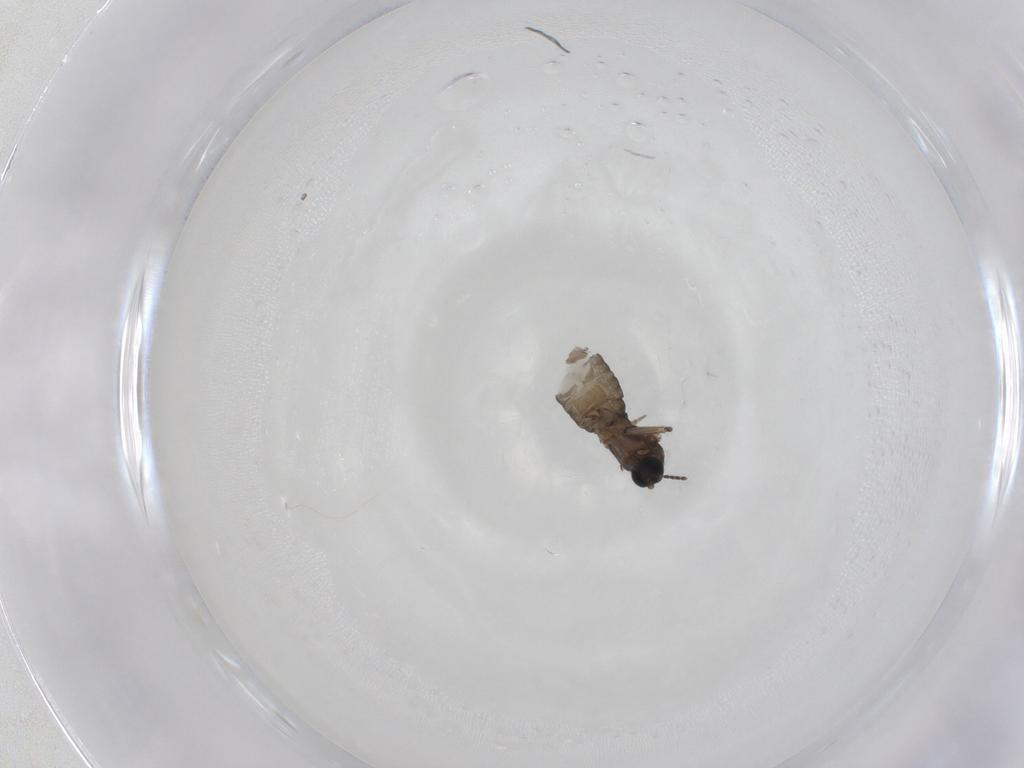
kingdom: Animalia
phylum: Arthropoda
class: Insecta
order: Diptera
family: Sciaridae
